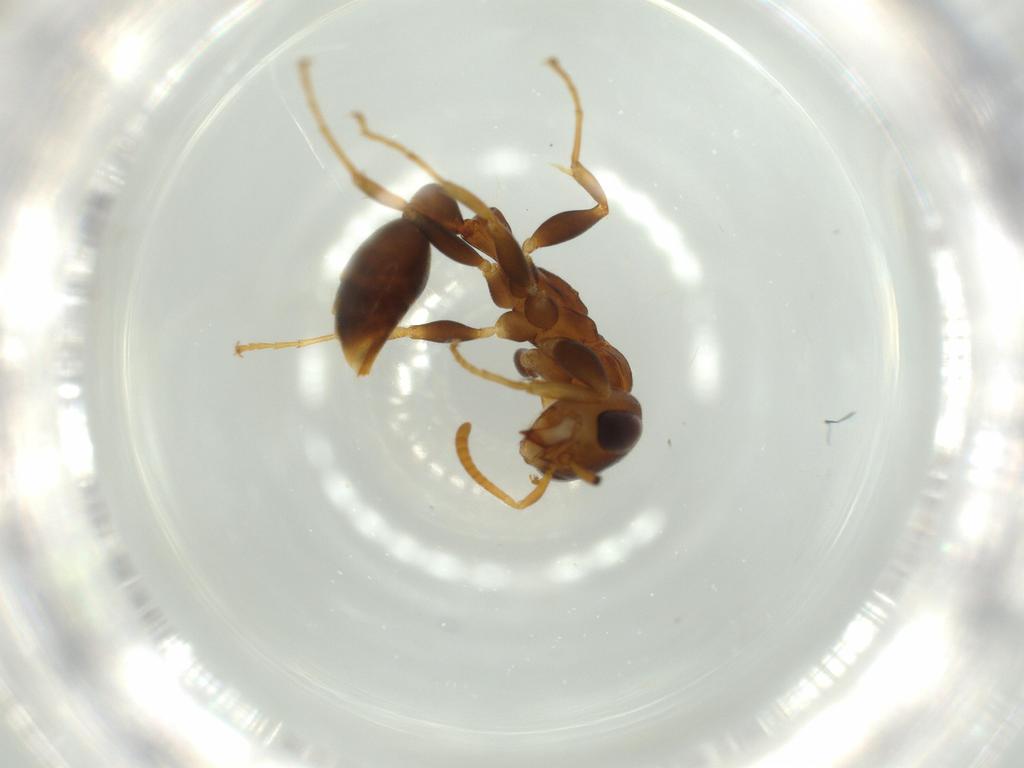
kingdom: Animalia
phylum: Arthropoda
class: Insecta
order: Hymenoptera
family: Formicidae
